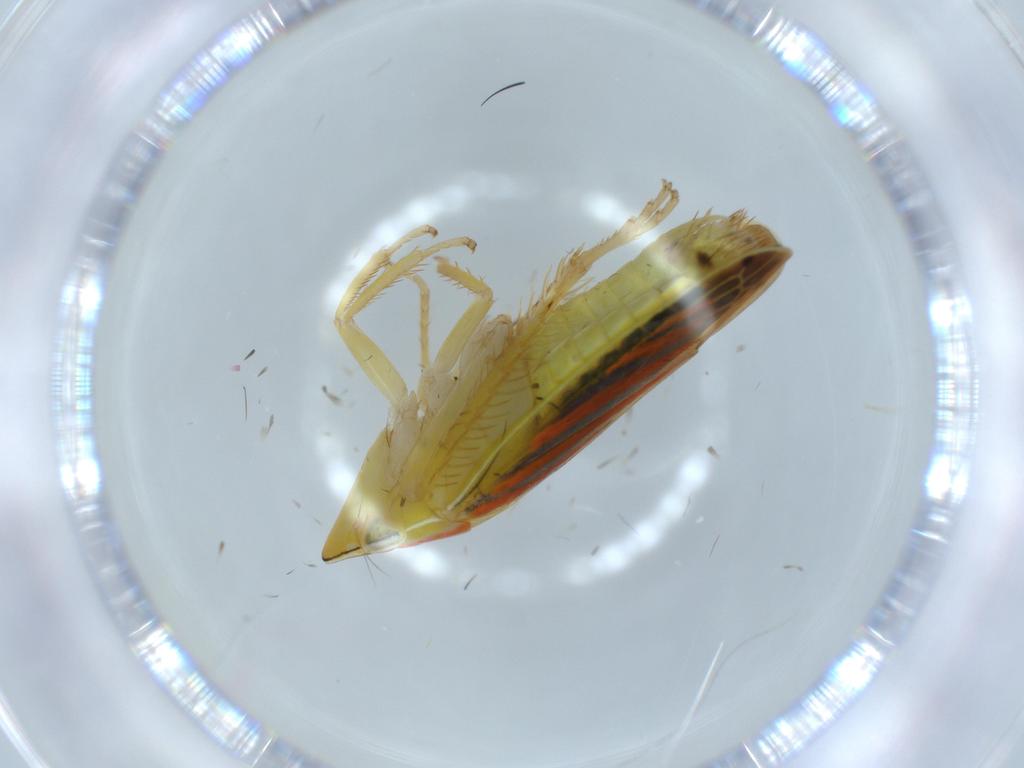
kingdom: Animalia
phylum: Arthropoda
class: Insecta
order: Hemiptera
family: Cicadellidae
